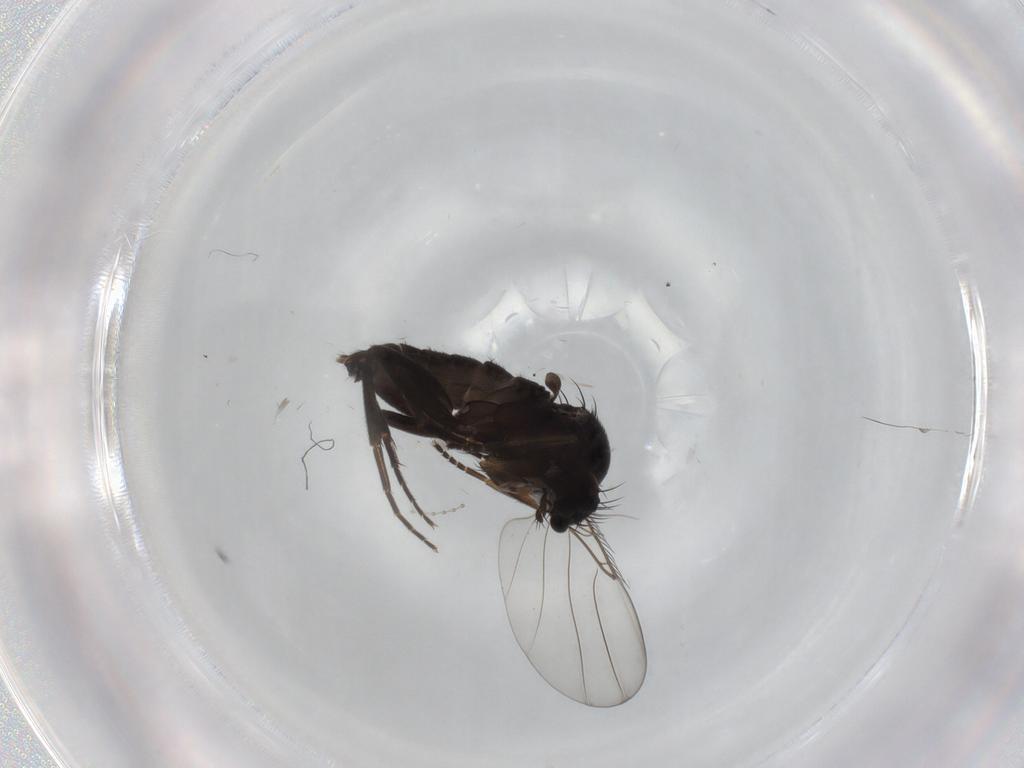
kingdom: Animalia
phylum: Arthropoda
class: Insecta
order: Diptera
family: Phoridae
